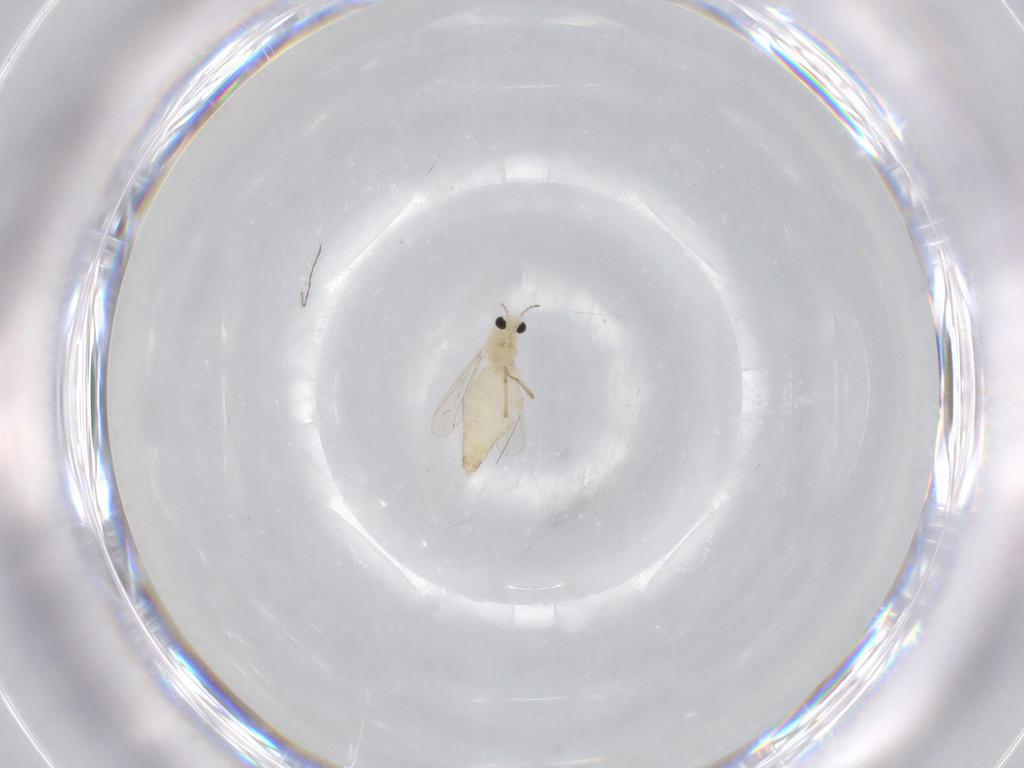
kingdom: Animalia
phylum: Arthropoda
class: Insecta
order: Diptera
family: Chironomidae
